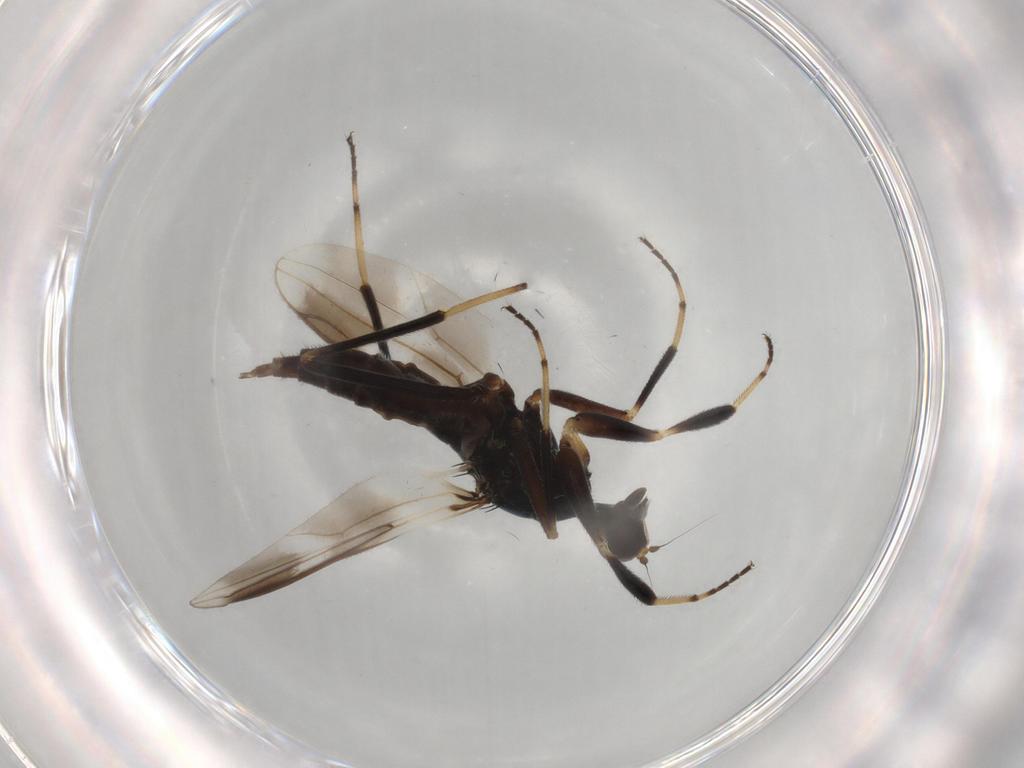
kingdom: Animalia
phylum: Arthropoda
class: Insecta
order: Diptera
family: Hybotidae
